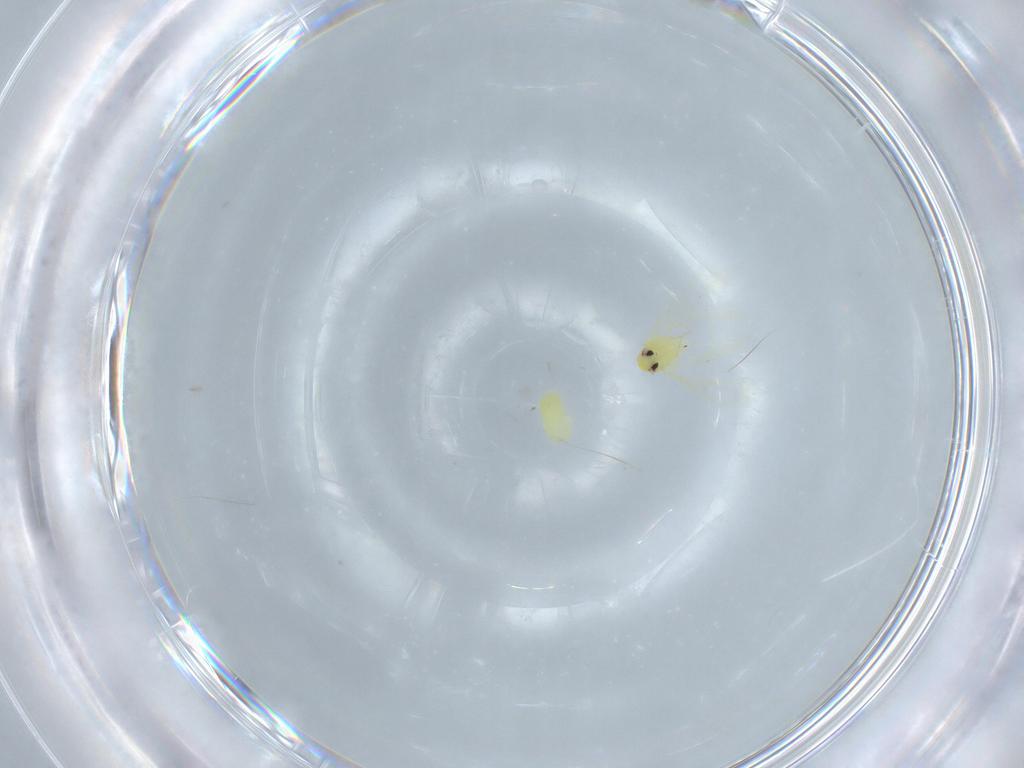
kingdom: Animalia
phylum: Arthropoda
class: Insecta
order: Hemiptera
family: Aleyrodidae
